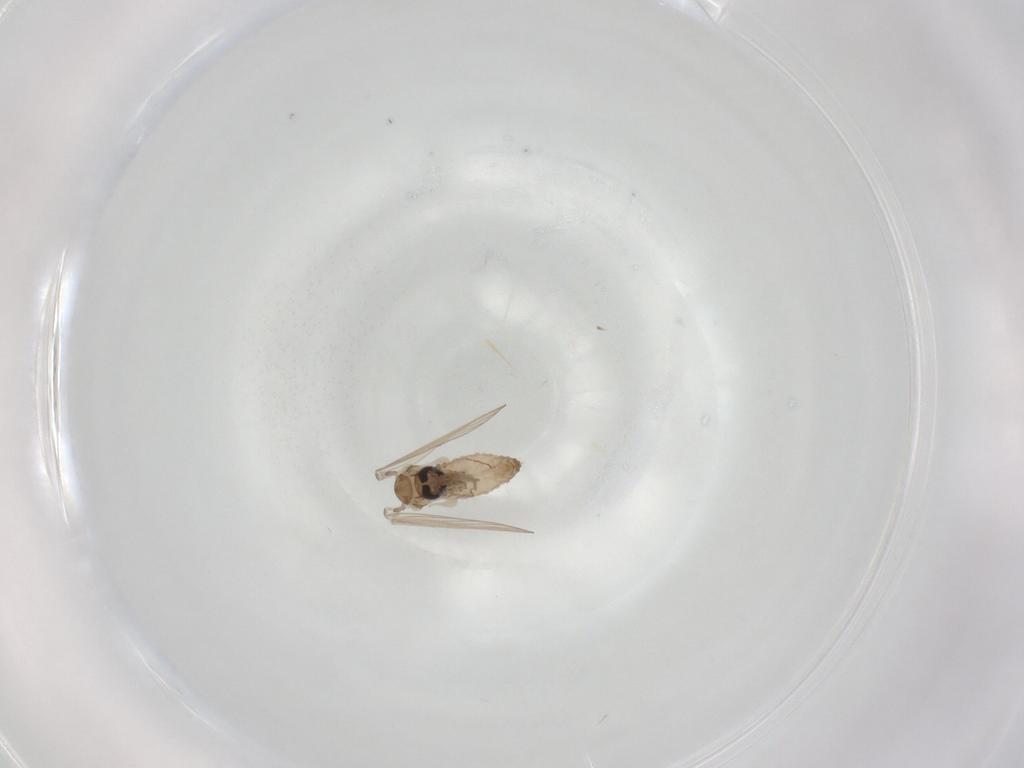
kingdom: Animalia
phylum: Arthropoda
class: Insecta
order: Diptera
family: Psychodidae
